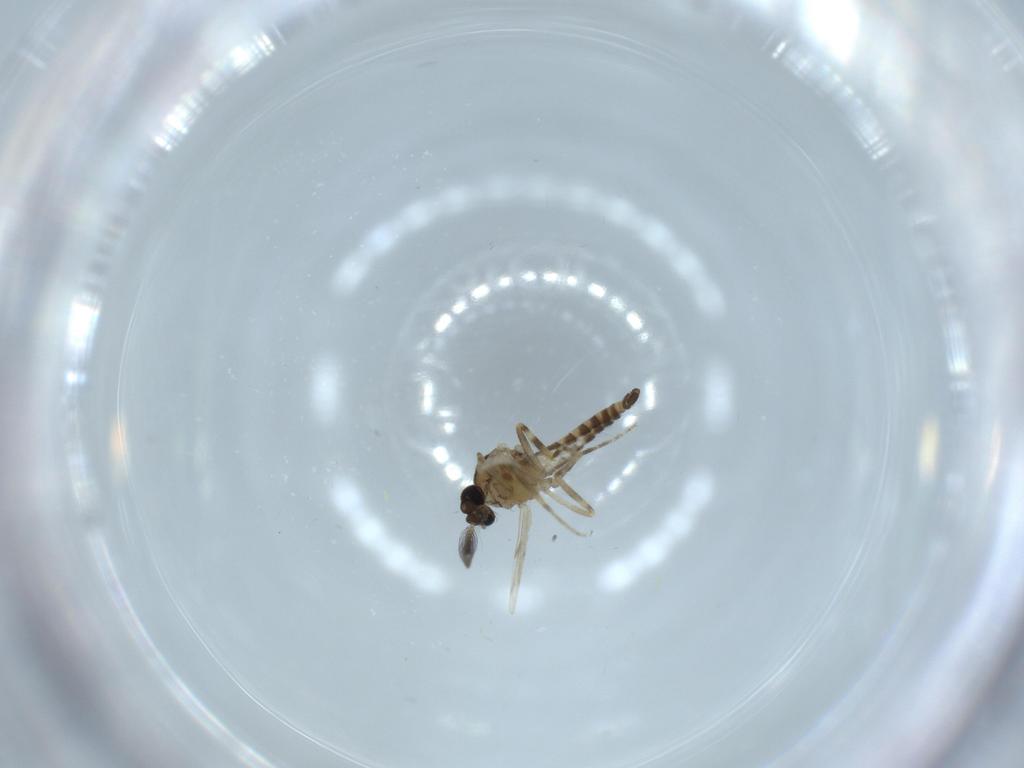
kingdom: Animalia
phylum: Arthropoda
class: Insecta
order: Diptera
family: Ceratopogonidae
